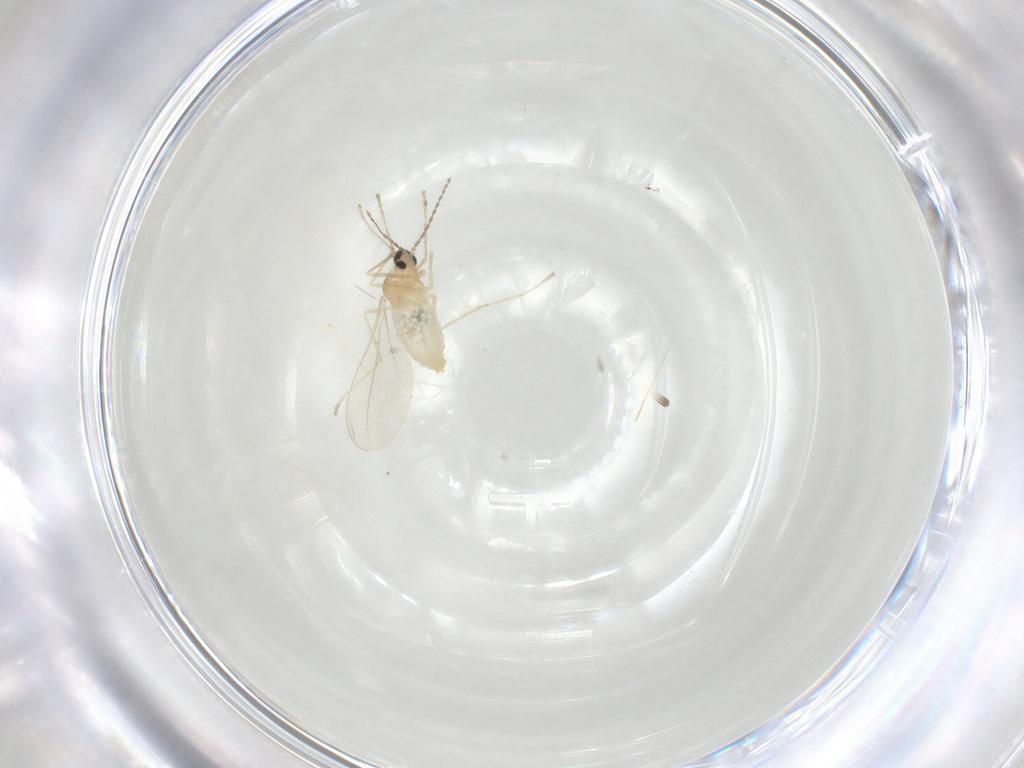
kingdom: Animalia
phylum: Arthropoda
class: Insecta
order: Diptera
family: Cecidomyiidae
